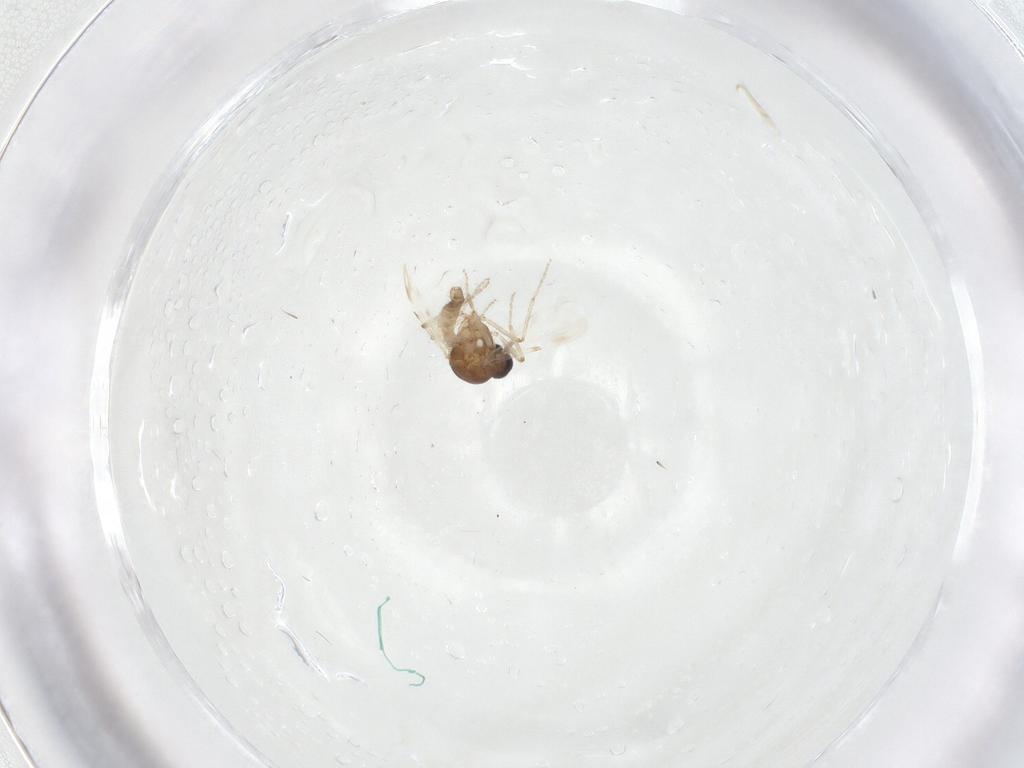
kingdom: Animalia
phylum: Arthropoda
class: Insecta
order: Diptera
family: Ceratopogonidae
